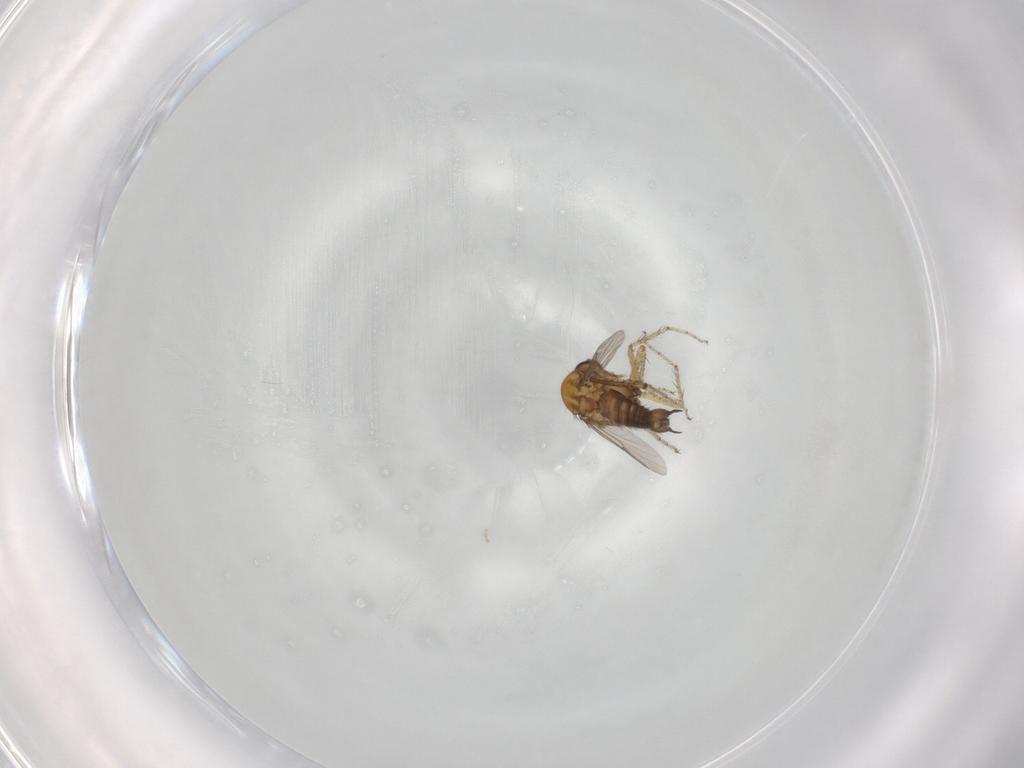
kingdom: Animalia
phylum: Arthropoda
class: Insecta
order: Diptera
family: Ceratopogonidae
